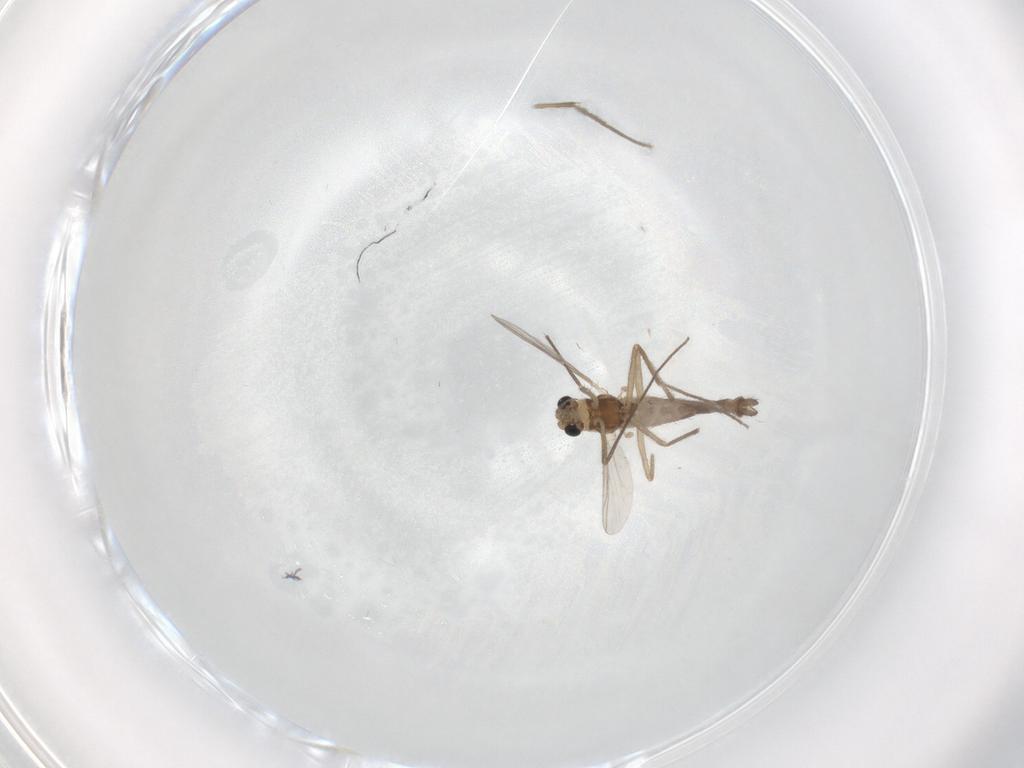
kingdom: Animalia
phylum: Arthropoda
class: Insecta
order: Diptera
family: Chironomidae
